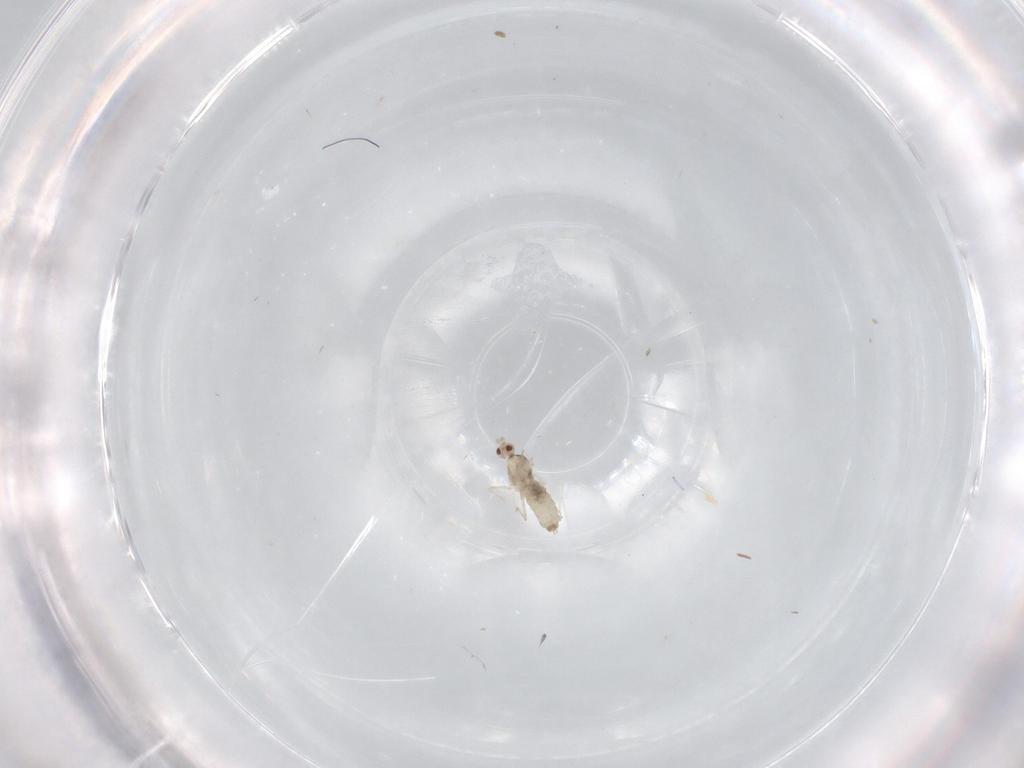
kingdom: Animalia
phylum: Arthropoda
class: Insecta
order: Diptera
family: Cecidomyiidae
